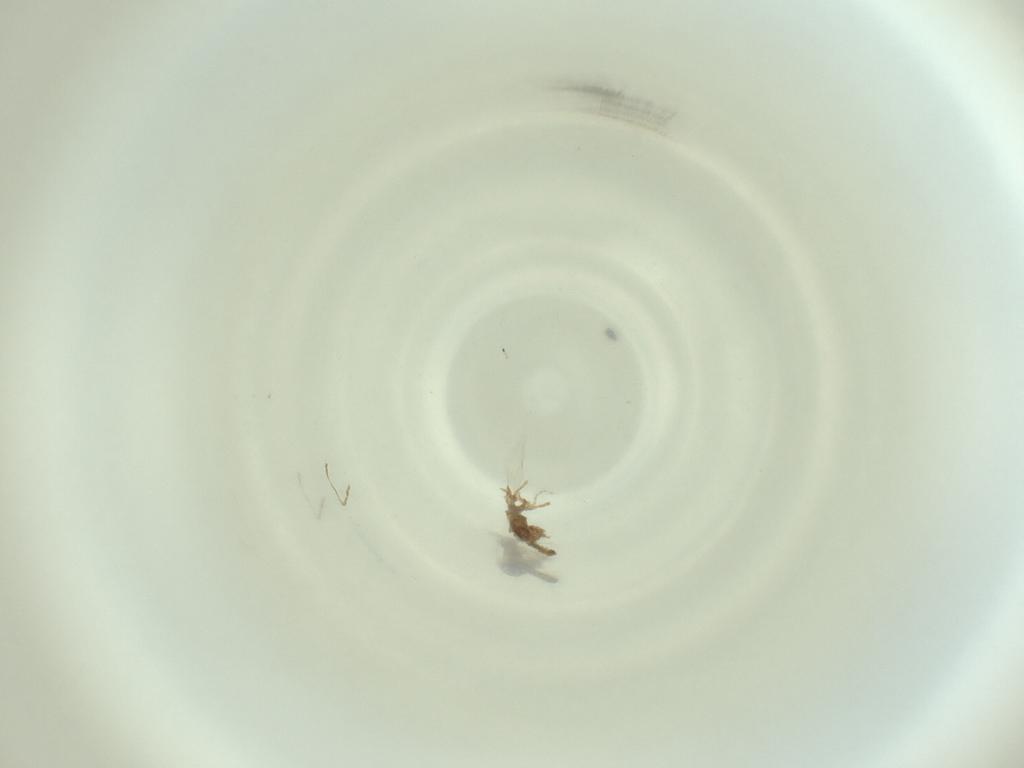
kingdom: Animalia
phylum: Arthropoda
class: Insecta
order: Diptera
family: Cecidomyiidae
